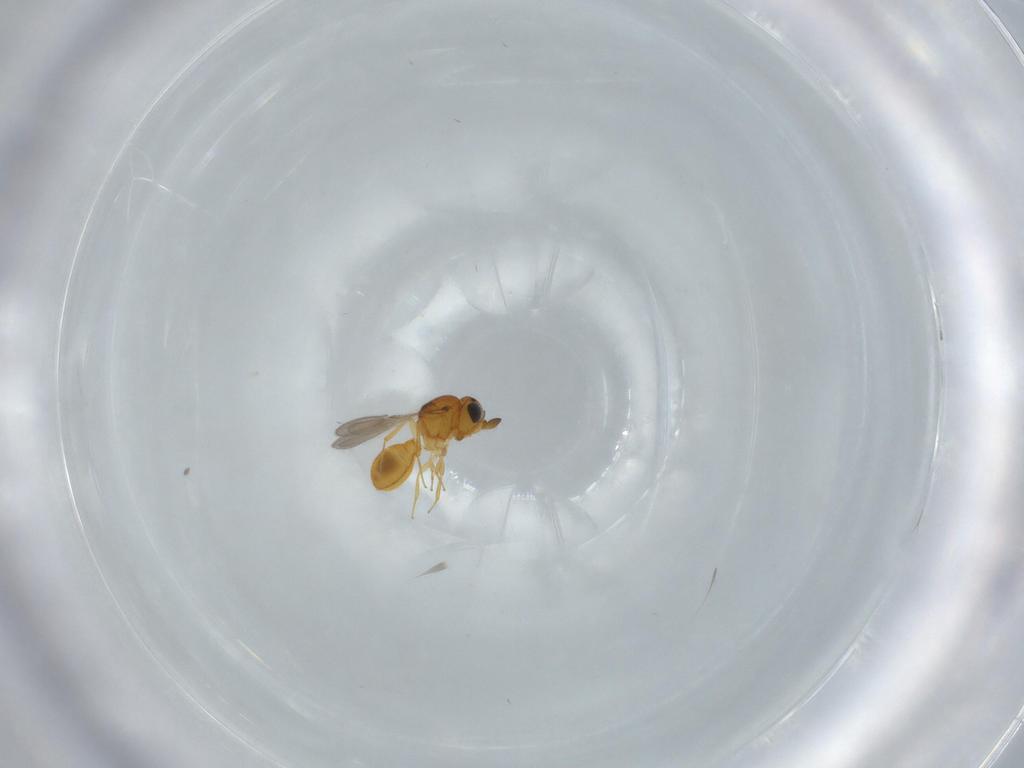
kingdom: Animalia
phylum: Arthropoda
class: Insecta
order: Hymenoptera
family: Scelionidae
